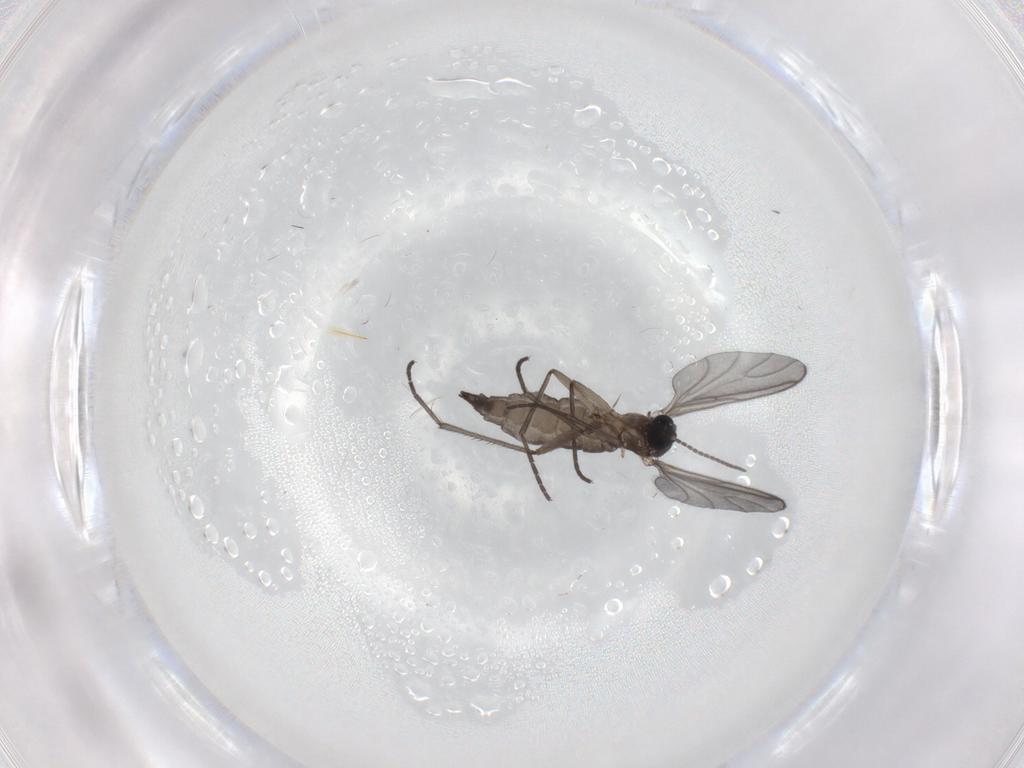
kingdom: Animalia
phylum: Arthropoda
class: Insecta
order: Diptera
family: Sciaridae
